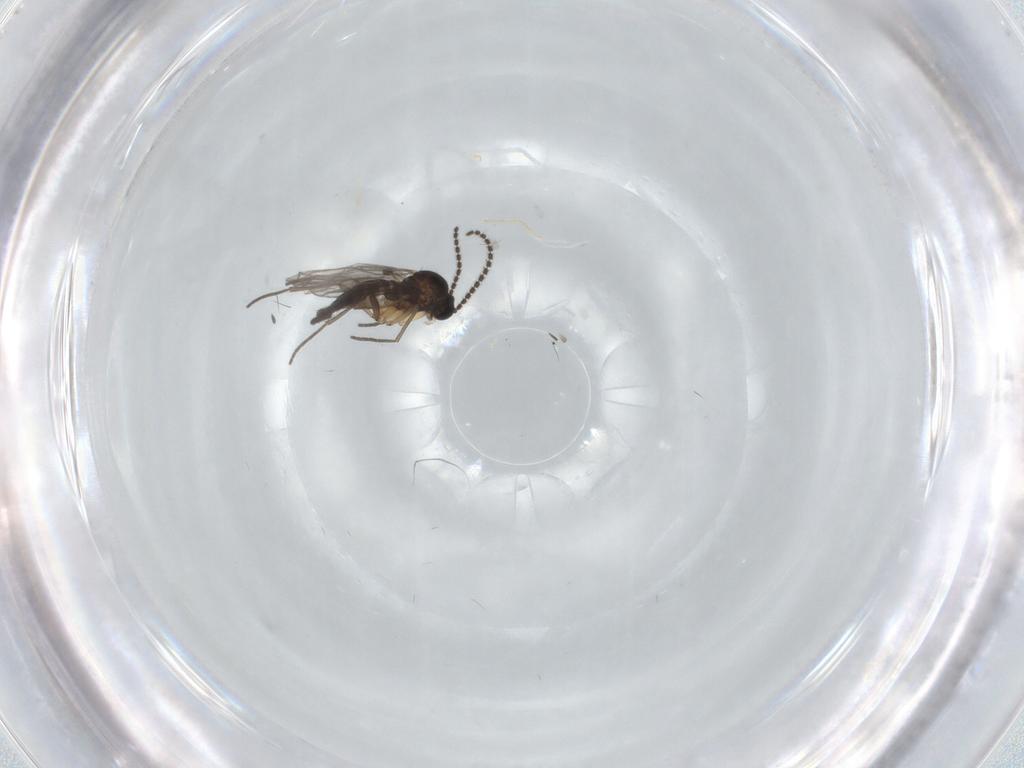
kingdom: Animalia
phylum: Arthropoda
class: Insecta
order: Diptera
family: Sciaridae
